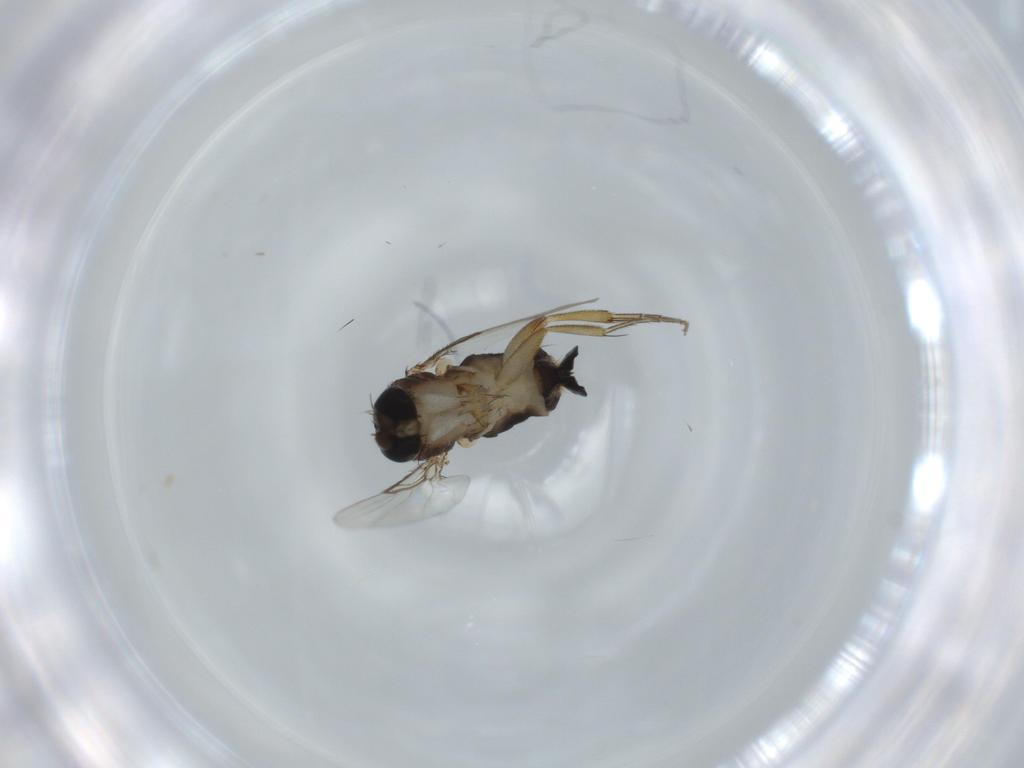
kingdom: Animalia
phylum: Arthropoda
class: Insecta
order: Diptera
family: Phoridae
